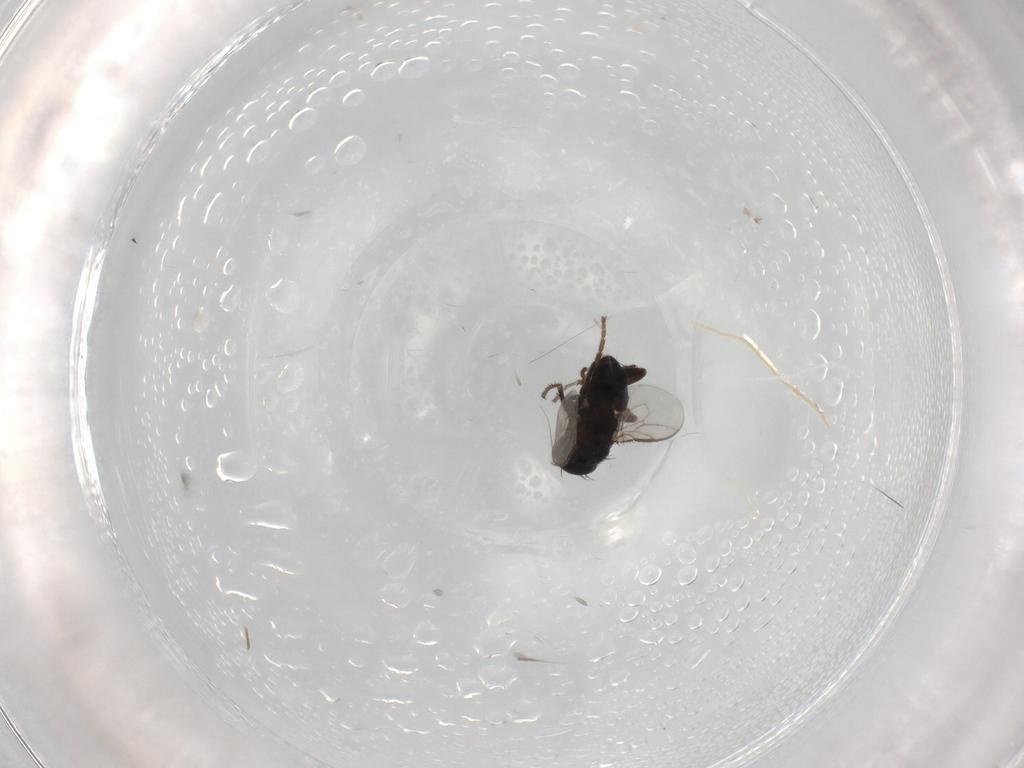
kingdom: Animalia
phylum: Arthropoda
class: Insecta
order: Diptera
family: Sphaeroceridae
